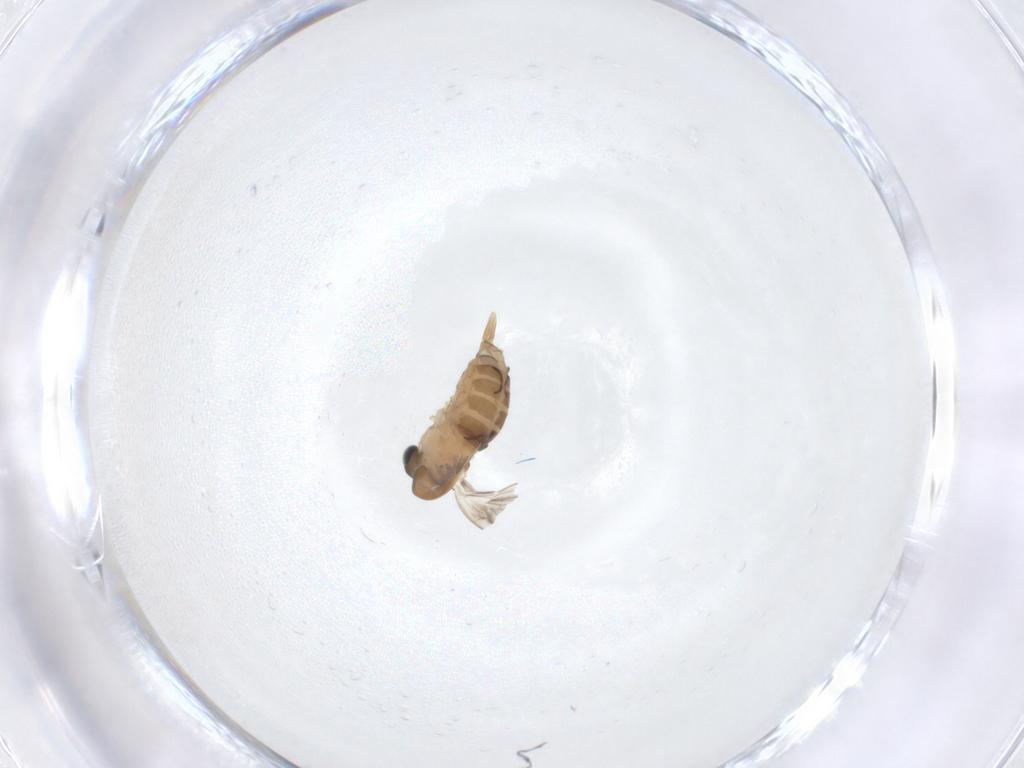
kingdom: Animalia
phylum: Arthropoda
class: Insecta
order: Diptera
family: Psychodidae
